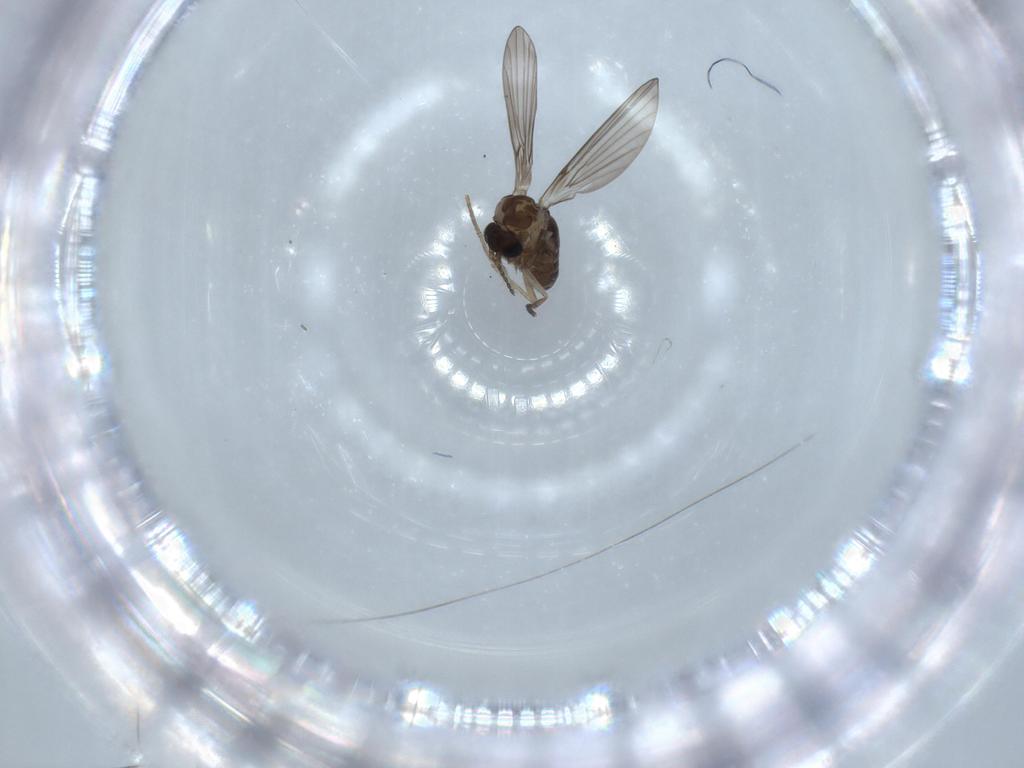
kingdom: Animalia
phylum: Arthropoda
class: Insecta
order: Diptera
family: Psychodidae
